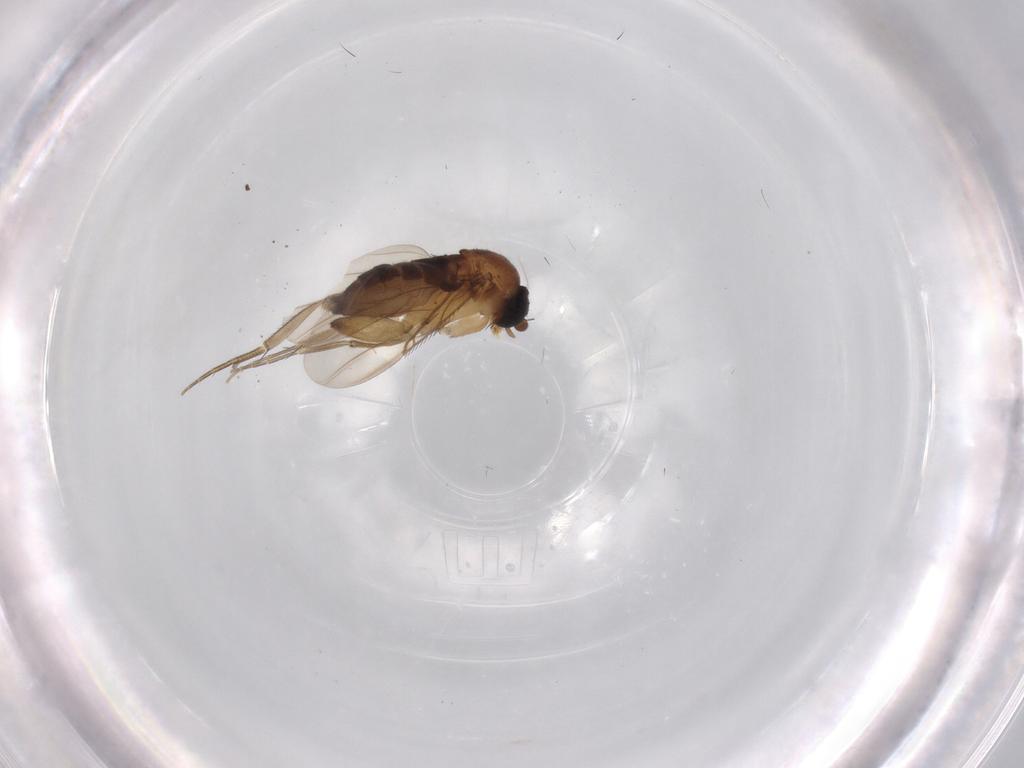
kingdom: Animalia
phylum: Arthropoda
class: Insecta
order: Diptera
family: Phoridae
